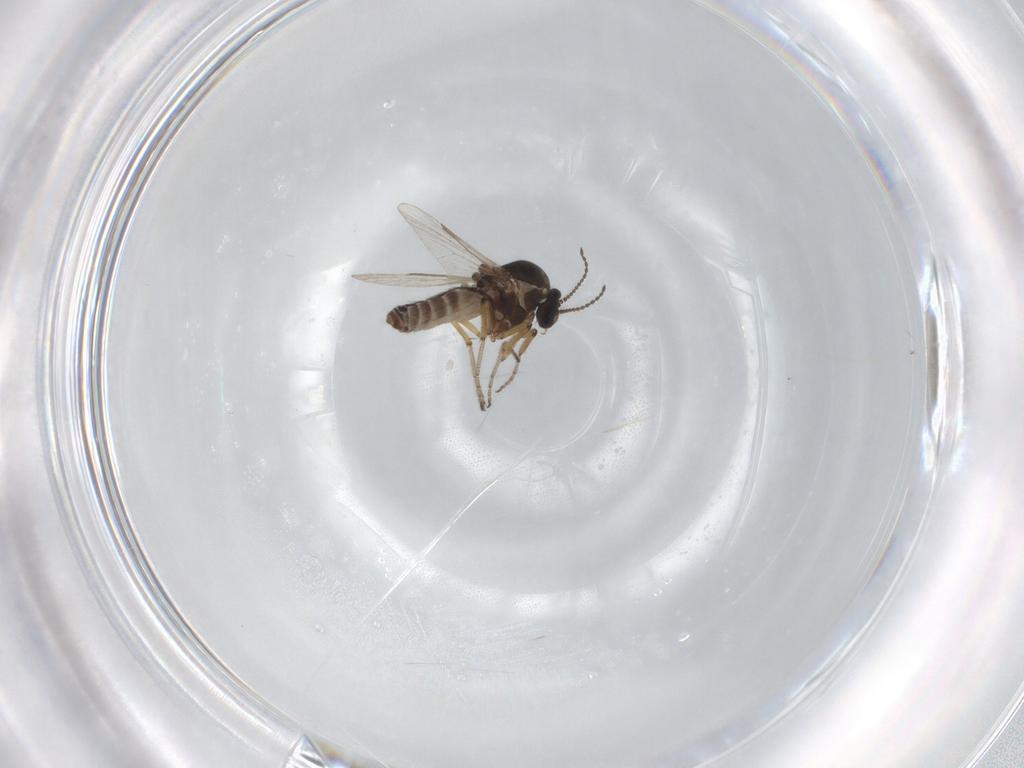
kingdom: Animalia
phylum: Arthropoda
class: Insecta
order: Diptera
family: Ceratopogonidae
